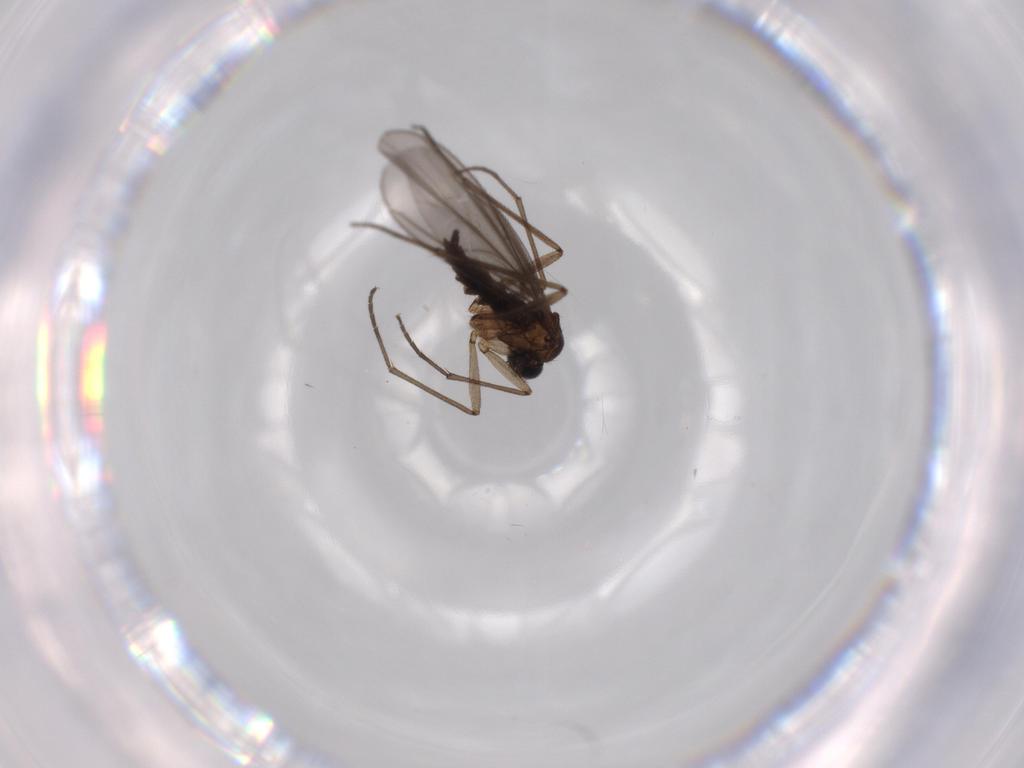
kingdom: Animalia
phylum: Arthropoda
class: Insecta
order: Diptera
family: Sciaridae
